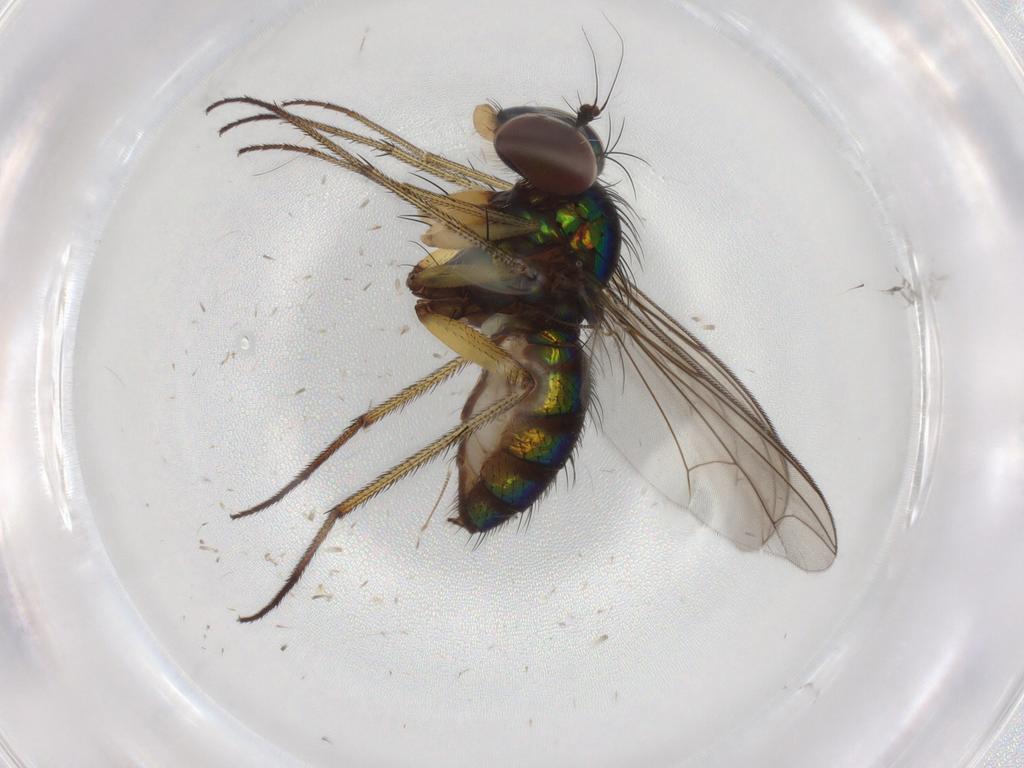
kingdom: Animalia
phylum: Arthropoda
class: Insecta
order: Diptera
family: Dolichopodidae
